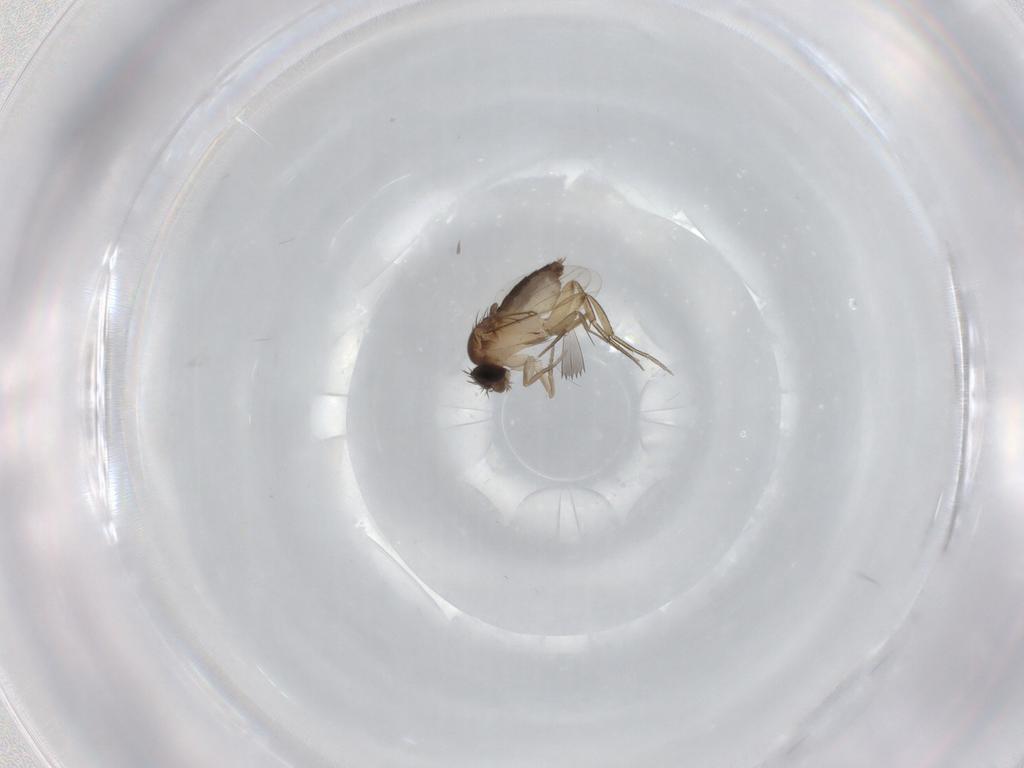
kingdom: Animalia
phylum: Arthropoda
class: Insecta
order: Diptera
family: Phoridae
